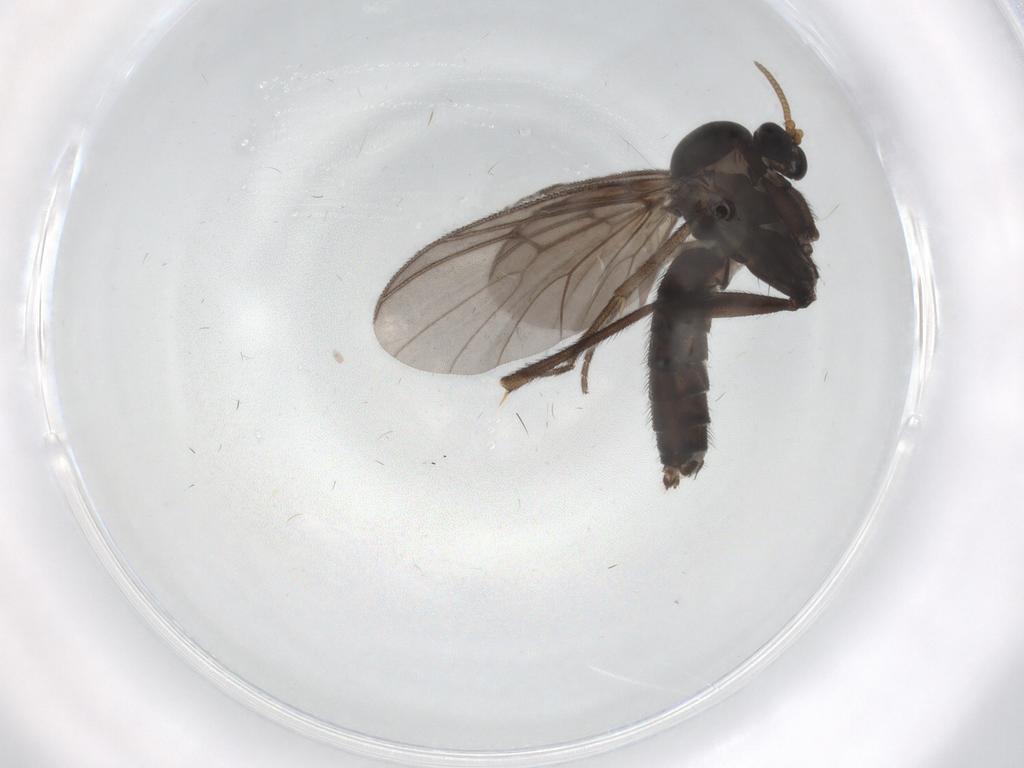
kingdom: Animalia
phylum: Arthropoda
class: Insecta
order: Diptera
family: Mycetophilidae
